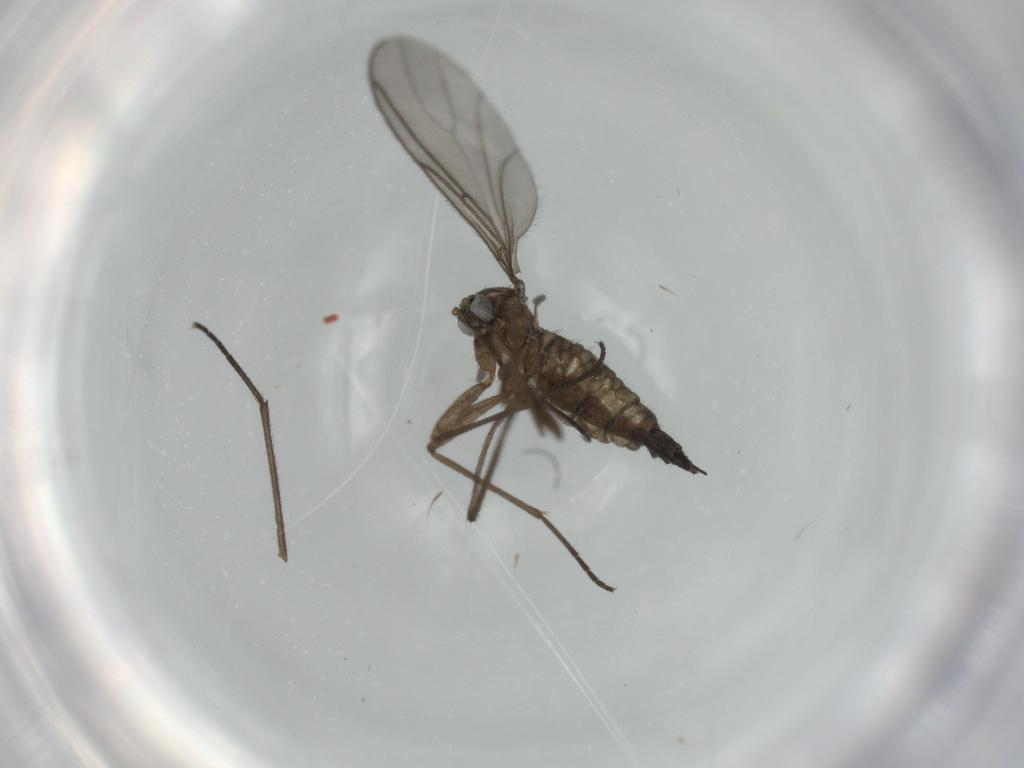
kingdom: Animalia
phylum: Arthropoda
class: Insecta
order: Diptera
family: Sciaridae
